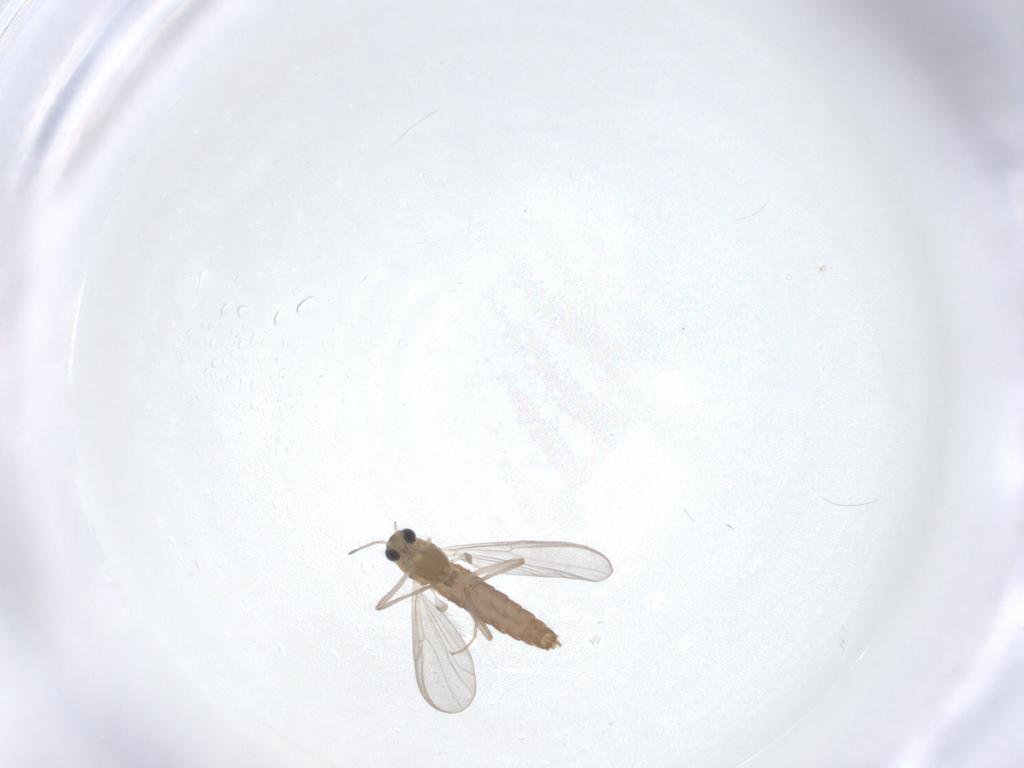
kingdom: Animalia
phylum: Arthropoda
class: Insecta
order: Diptera
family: Chironomidae
